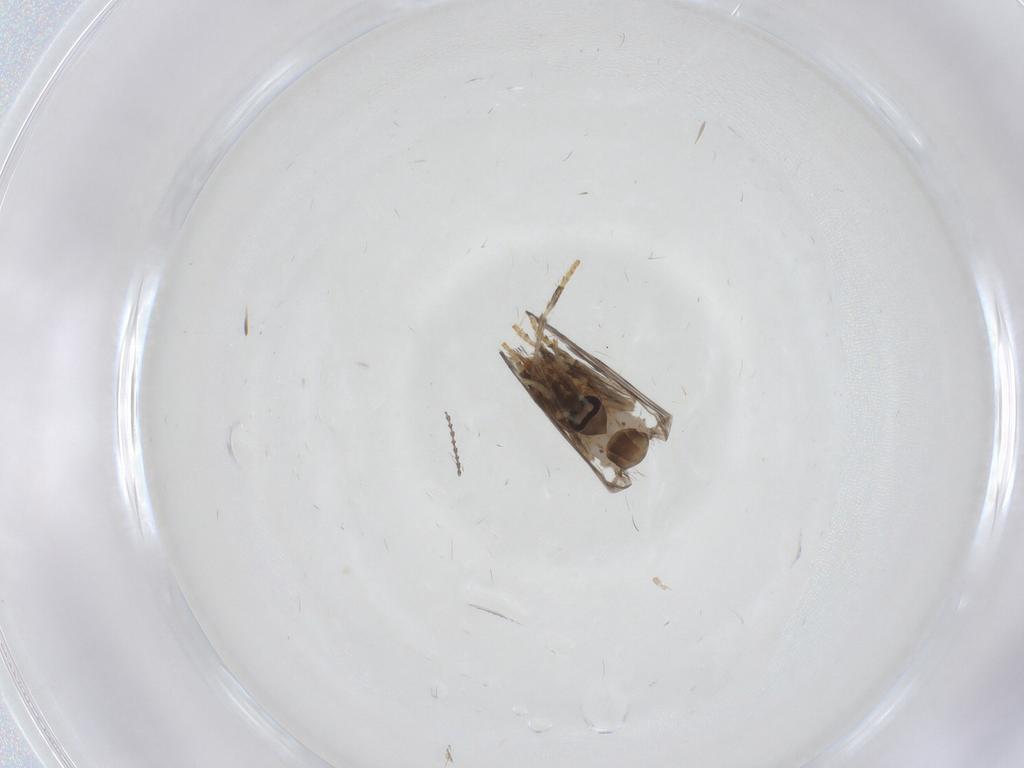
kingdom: Animalia
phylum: Arthropoda
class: Insecta
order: Diptera
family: Psychodidae
